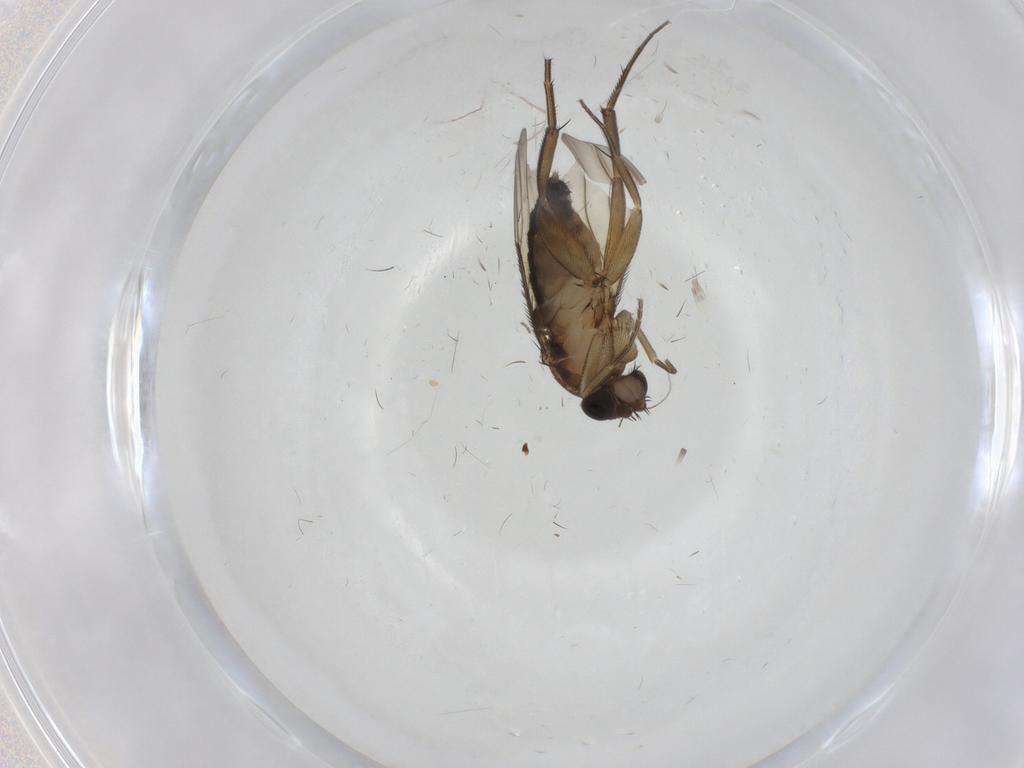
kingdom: Animalia
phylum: Arthropoda
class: Insecta
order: Diptera
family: Phoridae
